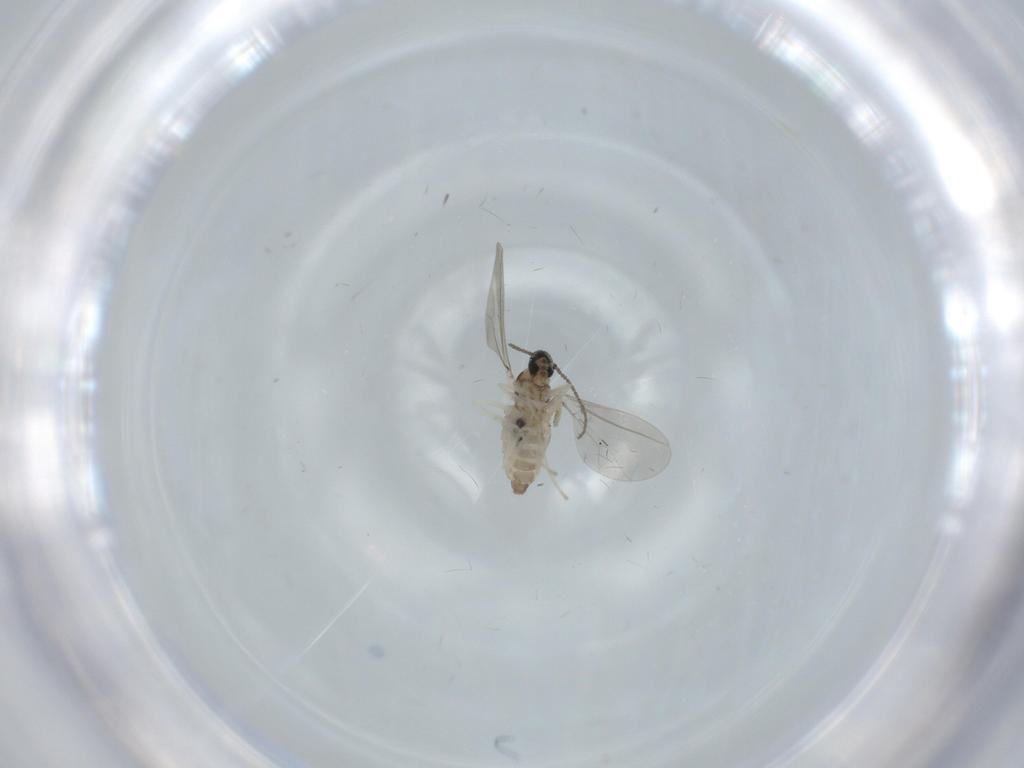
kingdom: Animalia
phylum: Arthropoda
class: Insecta
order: Diptera
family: Cecidomyiidae
